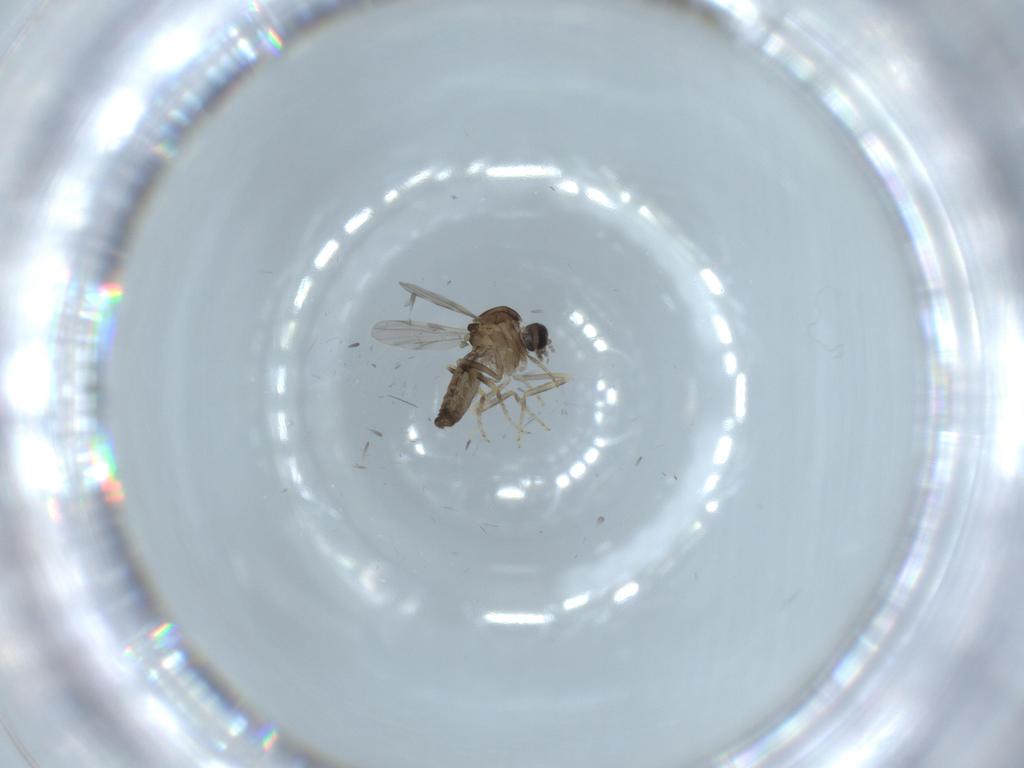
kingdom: Animalia
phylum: Arthropoda
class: Insecta
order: Diptera
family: Ceratopogonidae
